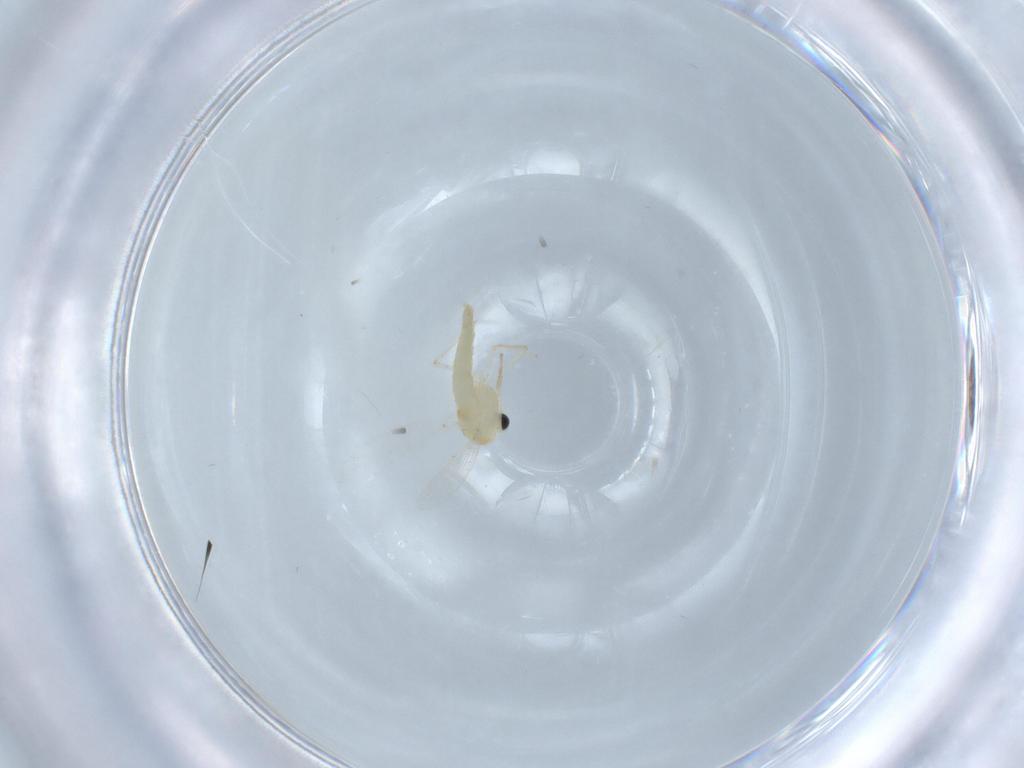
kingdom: Animalia
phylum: Arthropoda
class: Insecta
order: Diptera
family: Chironomidae
